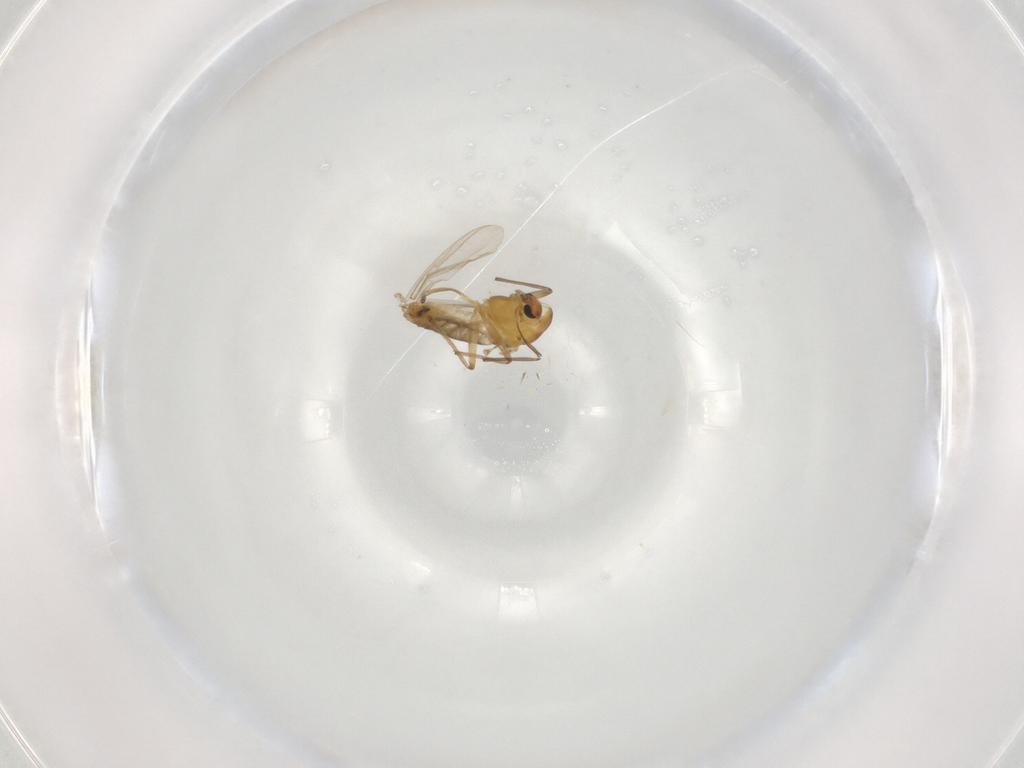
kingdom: Animalia
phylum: Arthropoda
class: Insecta
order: Diptera
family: Chironomidae
